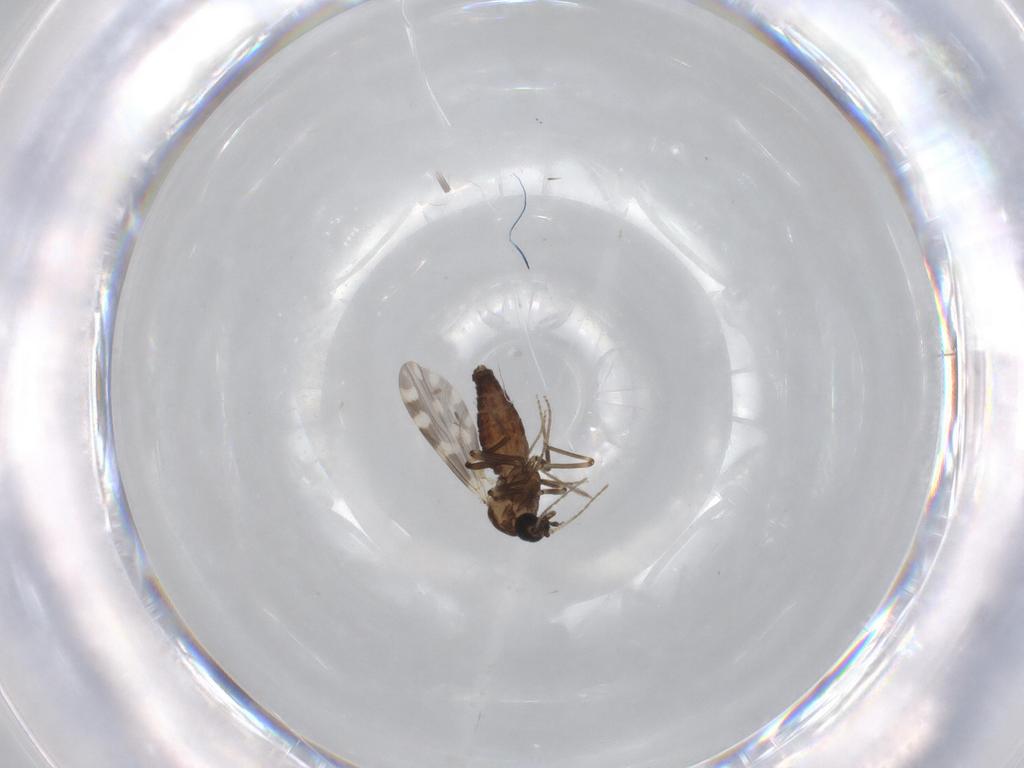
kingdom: Animalia
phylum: Arthropoda
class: Insecta
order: Diptera
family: Ceratopogonidae
